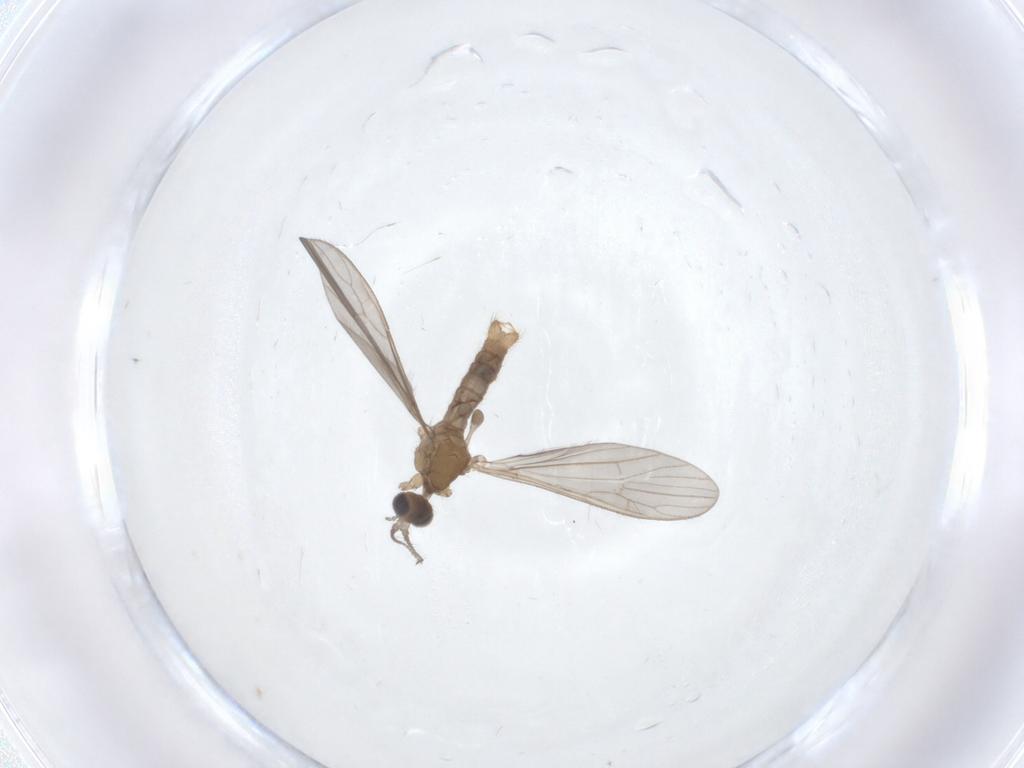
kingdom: Animalia
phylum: Arthropoda
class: Insecta
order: Diptera
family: Limoniidae
